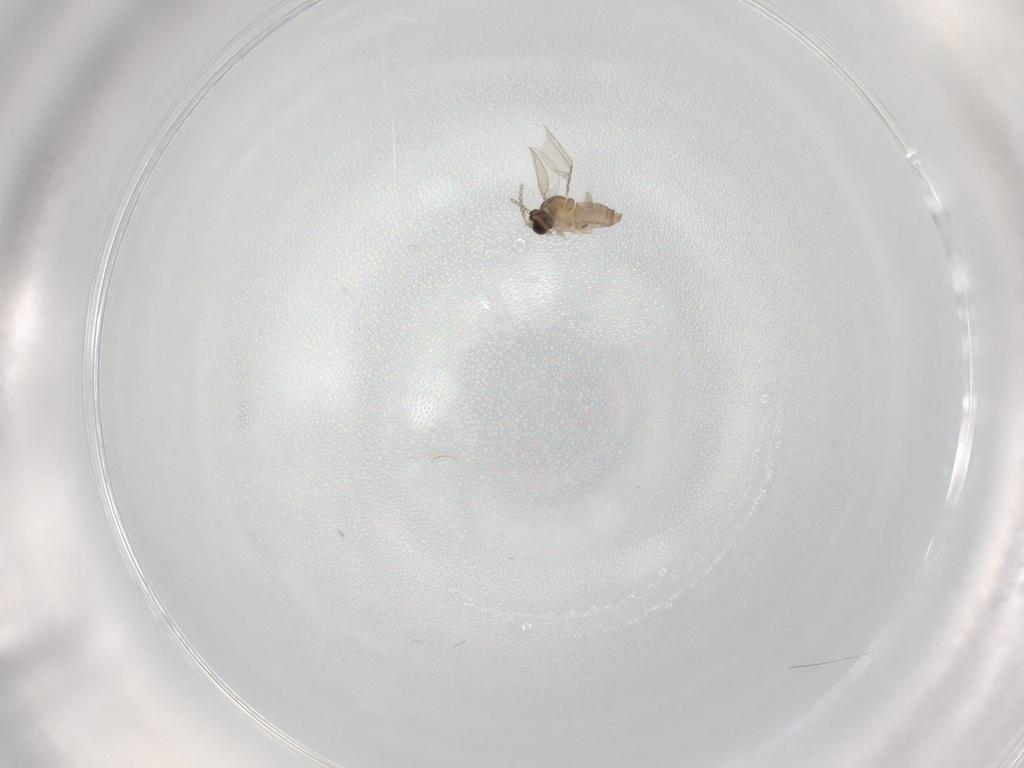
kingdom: Animalia
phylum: Arthropoda
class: Insecta
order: Diptera
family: Cecidomyiidae
